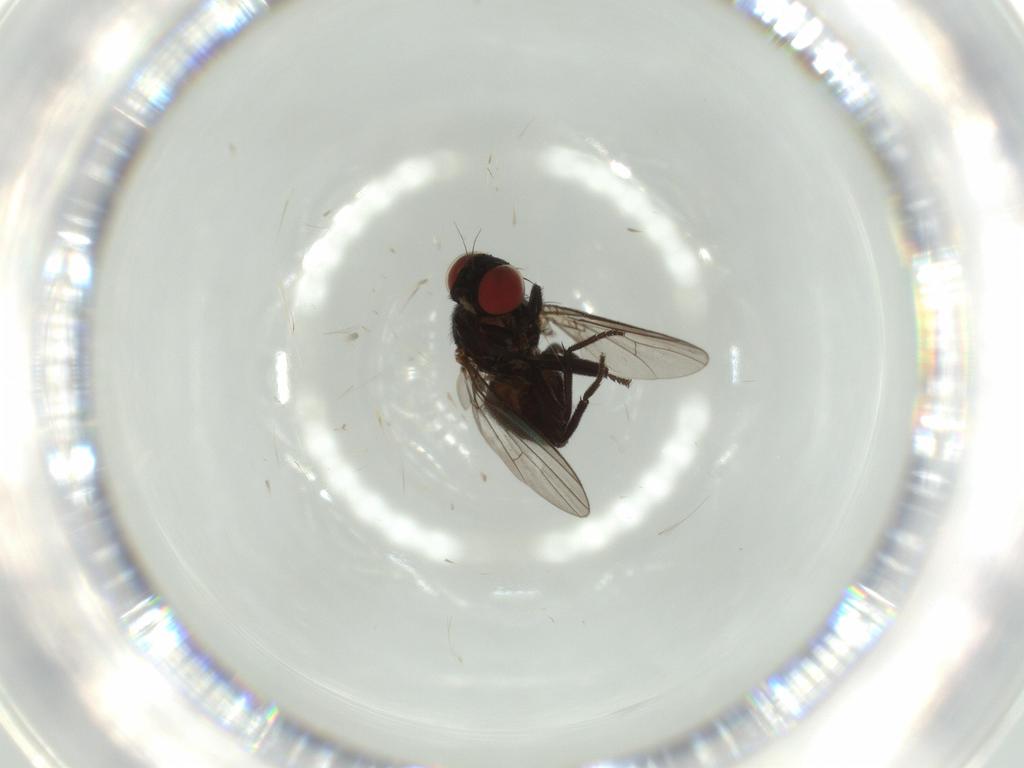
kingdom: Animalia
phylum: Arthropoda
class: Insecta
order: Diptera
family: Agromyzidae
